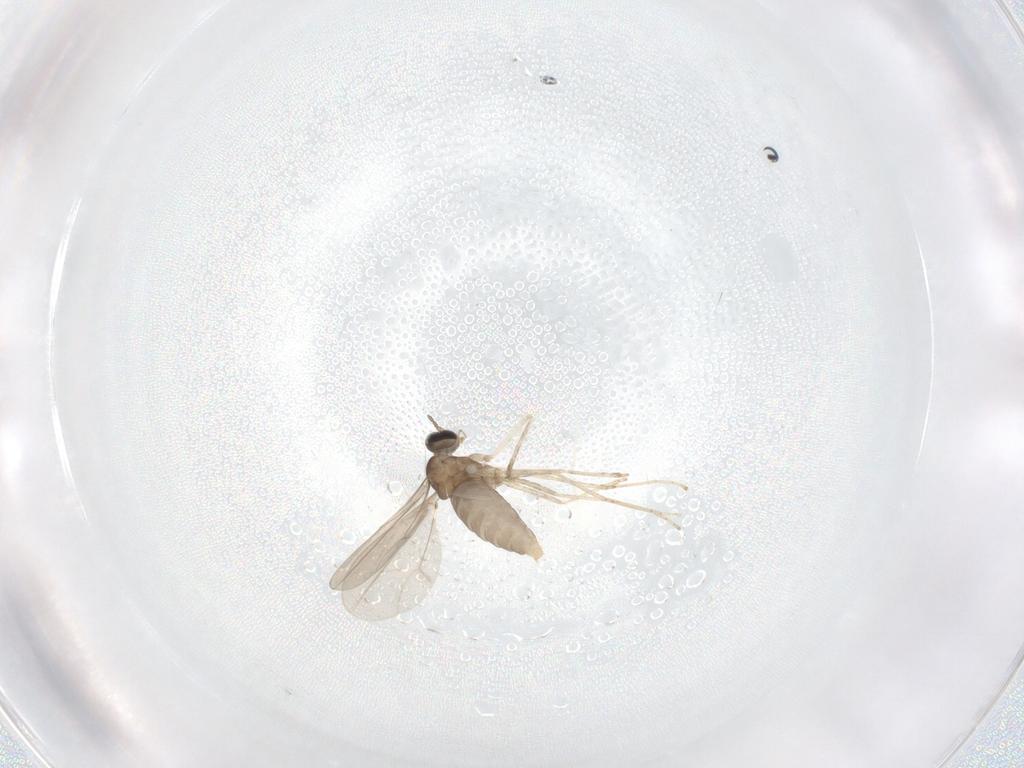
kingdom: Animalia
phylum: Arthropoda
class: Insecta
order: Diptera
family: Cecidomyiidae
